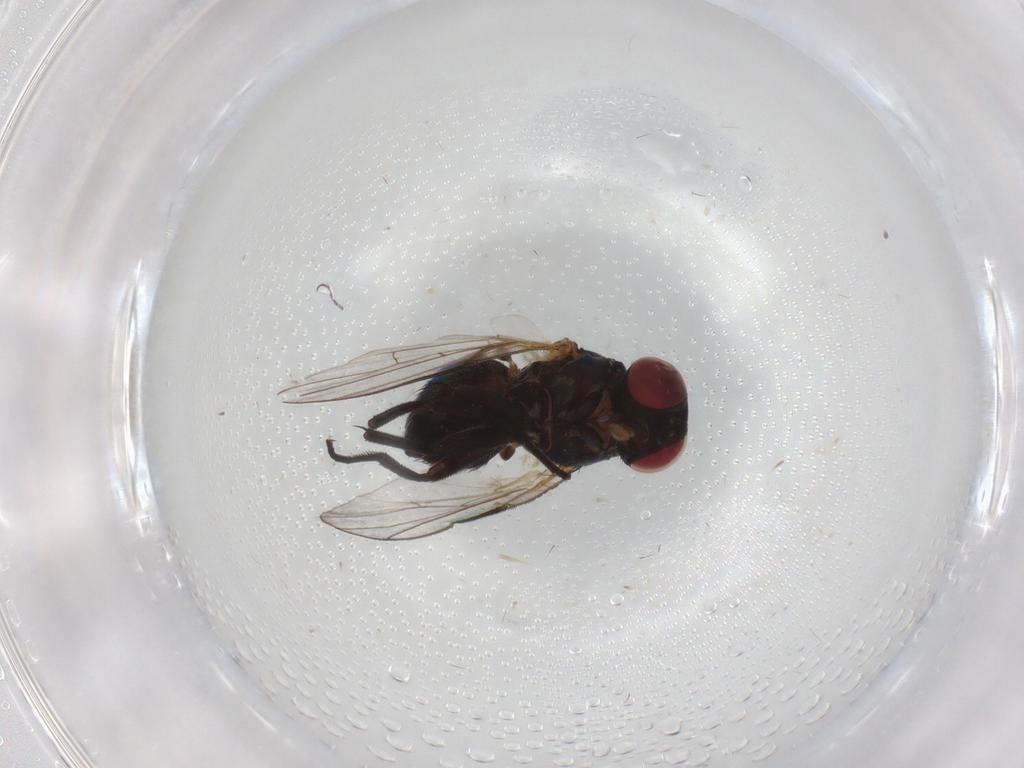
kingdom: Animalia
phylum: Arthropoda
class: Insecta
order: Diptera
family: Agromyzidae
